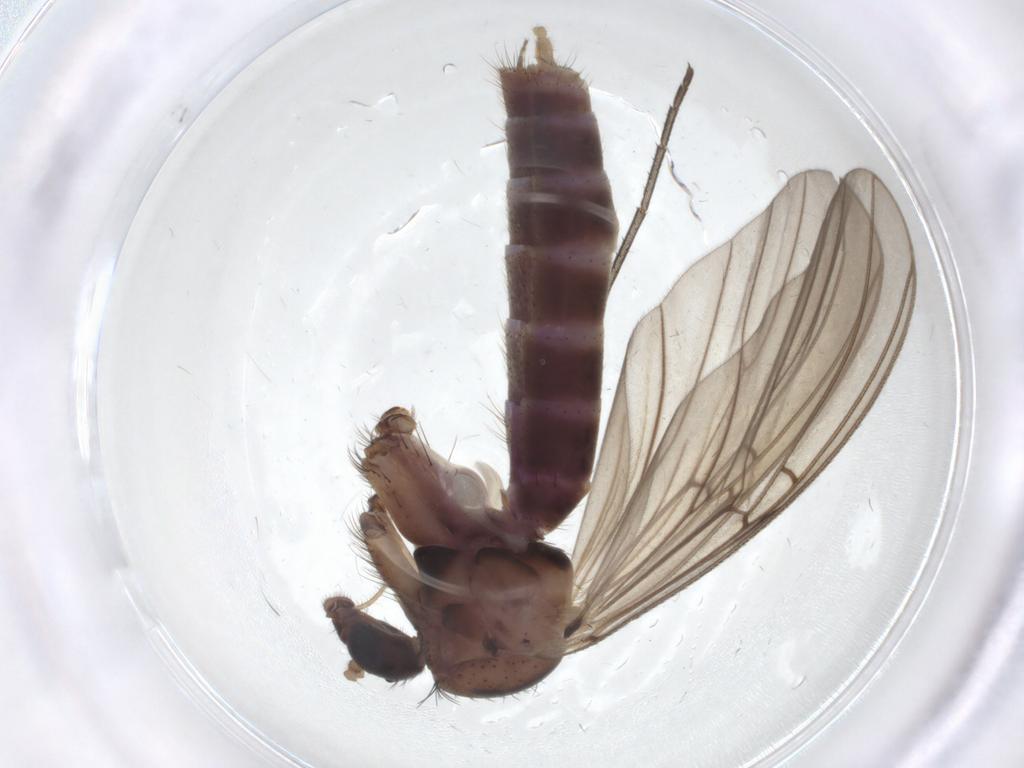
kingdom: Animalia
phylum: Arthropoda
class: Insecta
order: Diptera
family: Mycetophilidae
